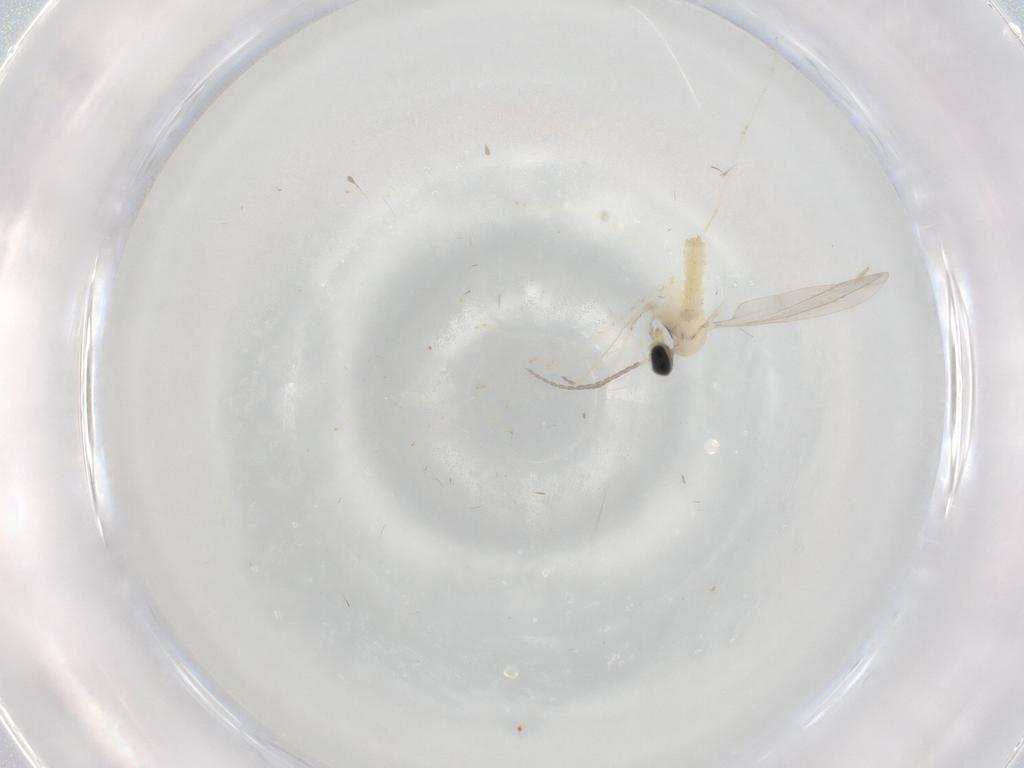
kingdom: Animalia
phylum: Arthropoda
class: Insecta
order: Diptera
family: Cecidomyiidae
